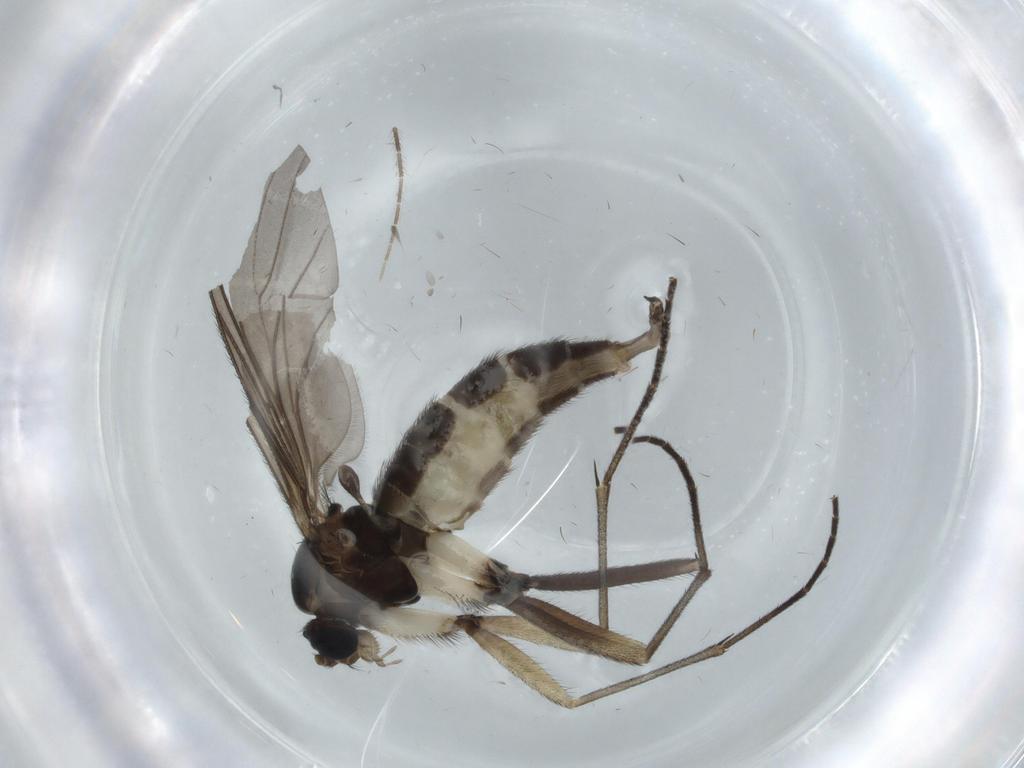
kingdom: Animalia
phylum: Arthropoda
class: Insecta
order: Diptera
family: Sciaridae
